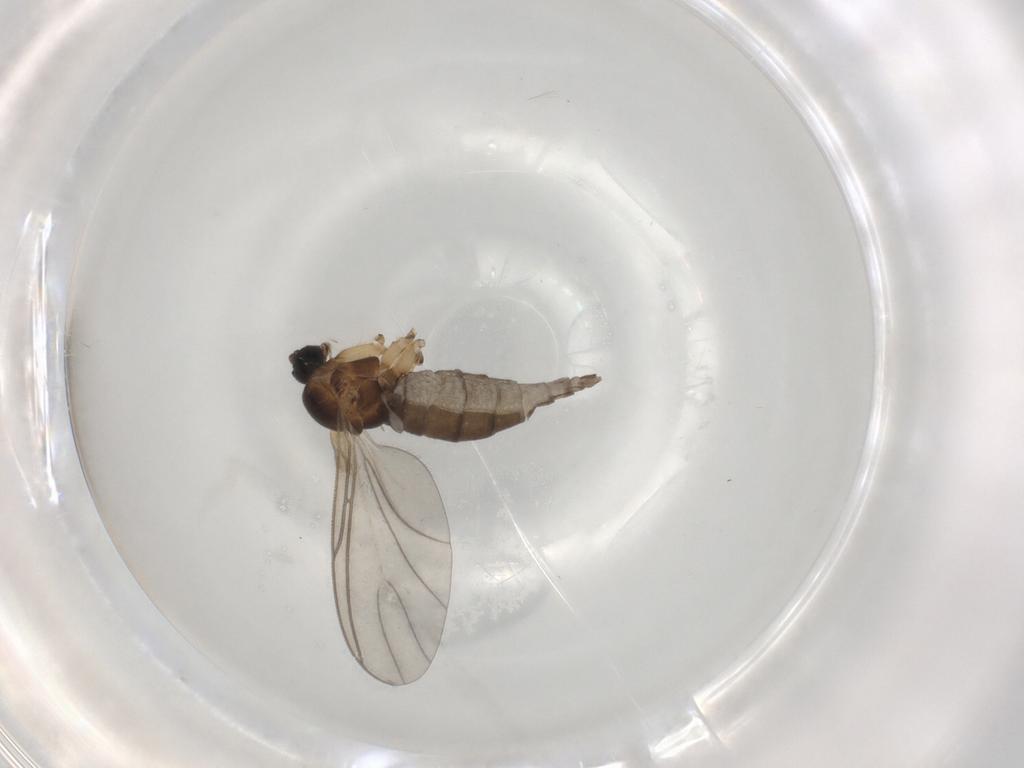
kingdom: Animalia
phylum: Arthropoda
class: Insecta
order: Diptera
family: Sciaridae
